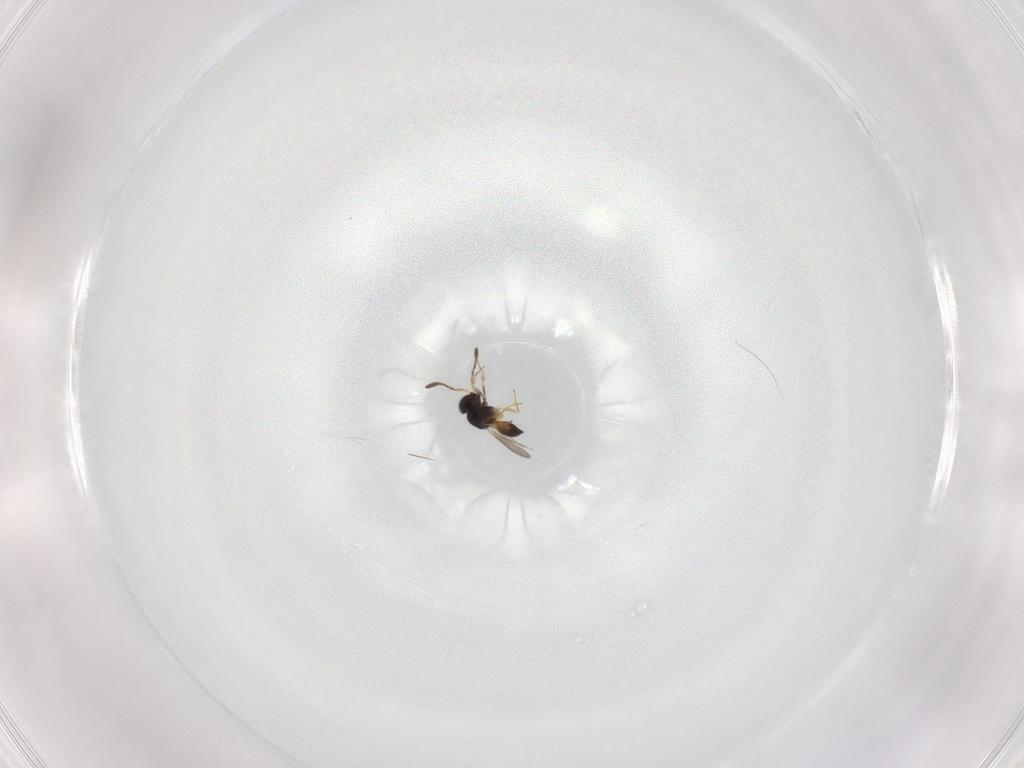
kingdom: Animalia
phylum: Arthropoda
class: Insecta
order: Hymenoptera
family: Scelionidae
